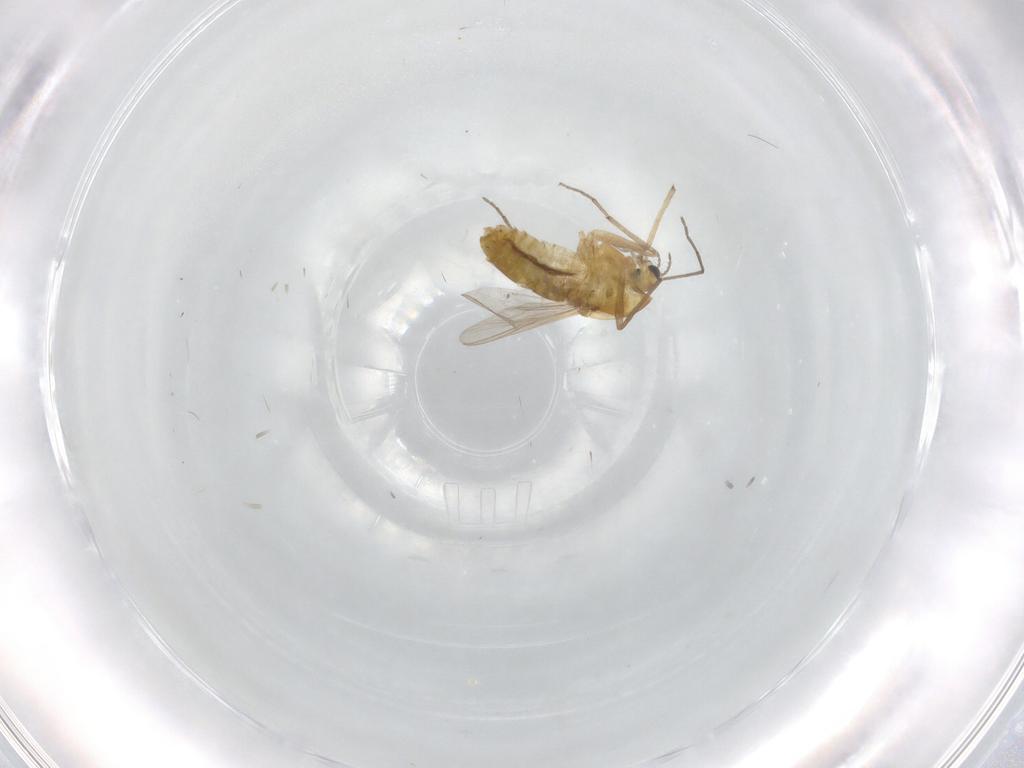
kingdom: Animalia
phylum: Arthropoda
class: Insecta
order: Diptera
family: Chironomidae
